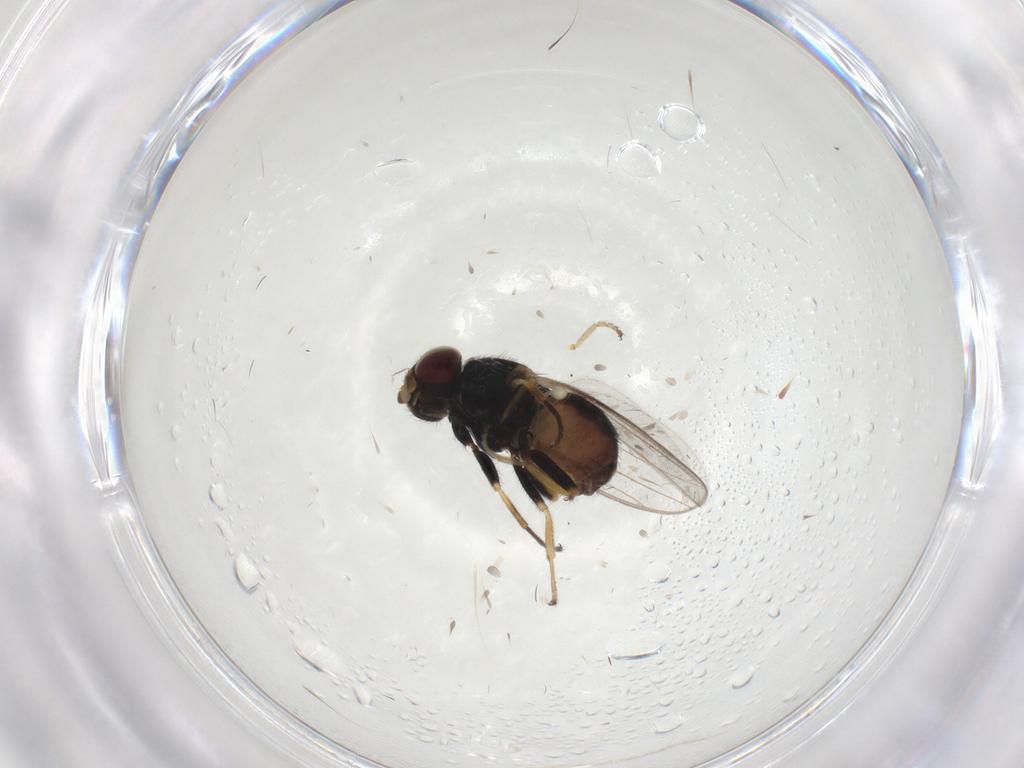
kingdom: Animalia
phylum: Arthropoda
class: Insecta
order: Diptera
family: Chloropidae
